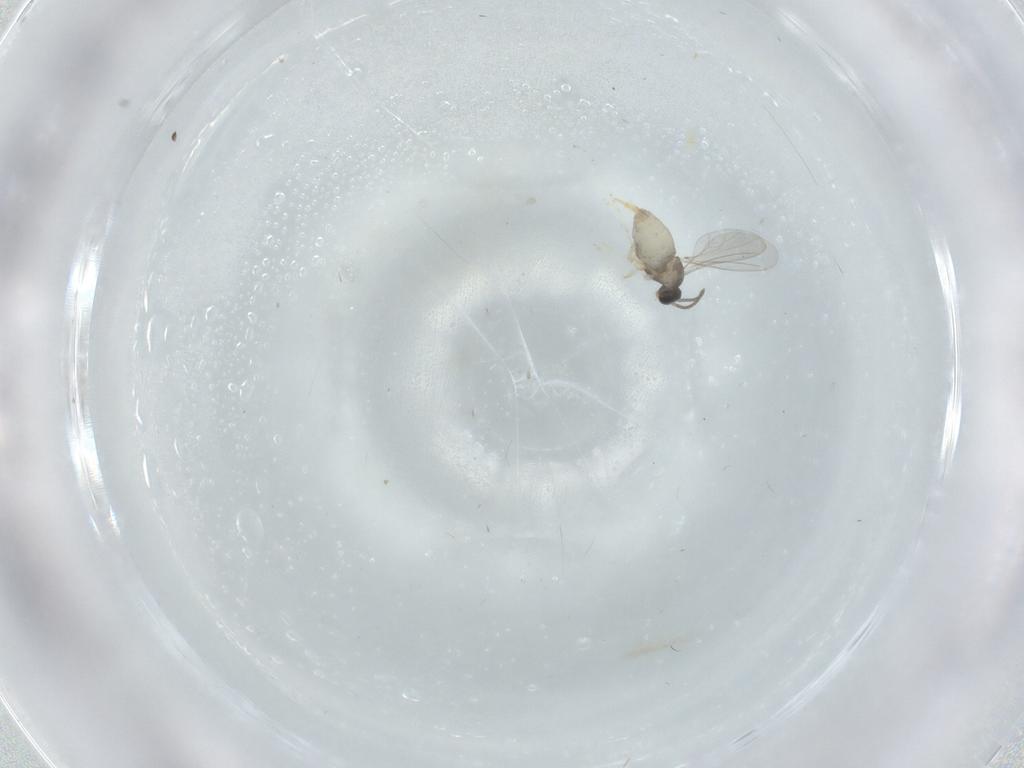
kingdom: Animalia
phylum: Arthropoda
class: Insecta
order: Diptera
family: Cecidomyiidae
